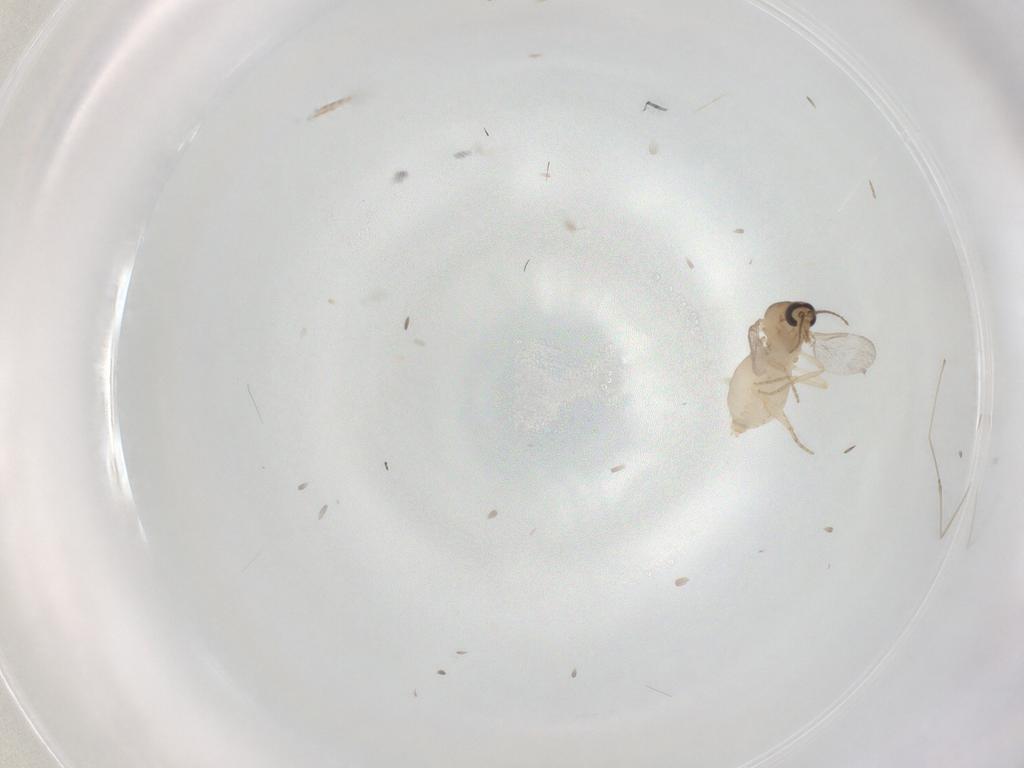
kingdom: Animalia
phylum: Arthropoda
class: Insecta
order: Diptera
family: Ceratopogonidae
